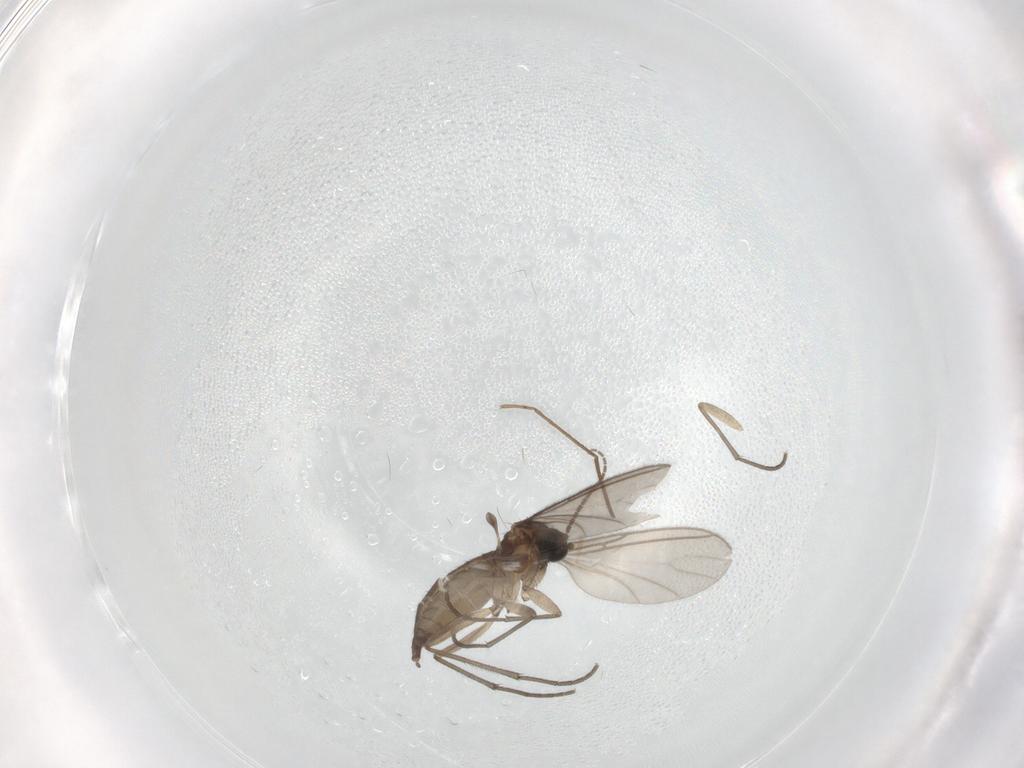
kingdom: Animalia
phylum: Arthropoda
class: Insecta
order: Diptera
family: Sciaridae
